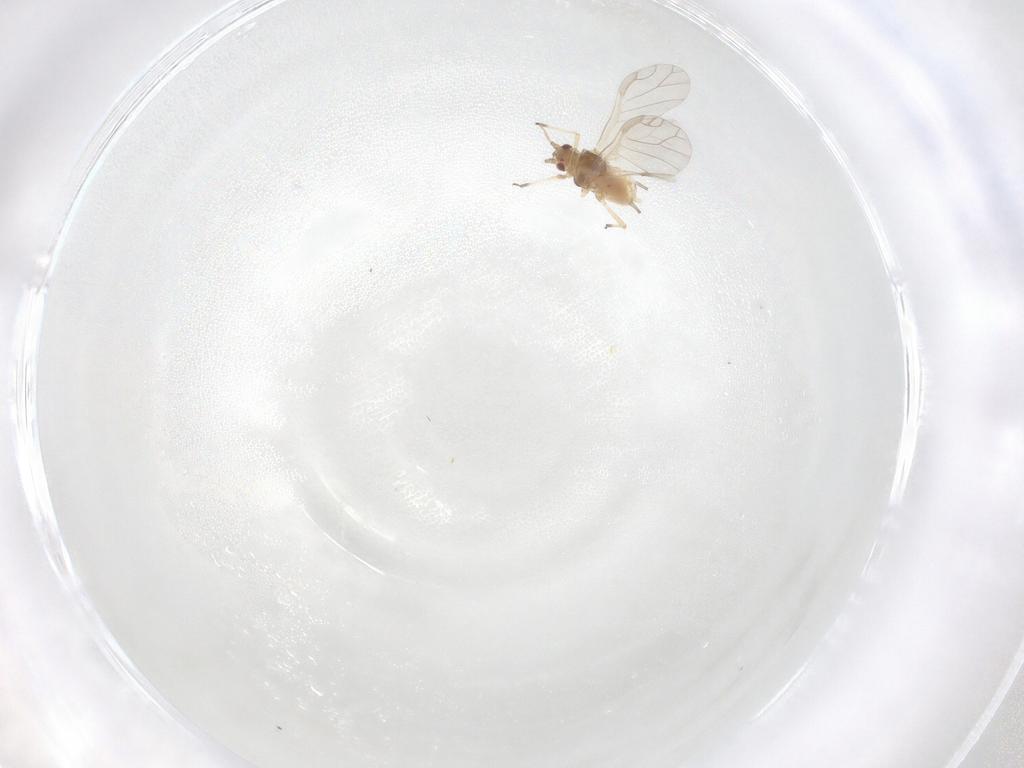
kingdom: Animalia
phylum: Arthropoda
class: Insecta
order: Hemiptera
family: Aphididae
